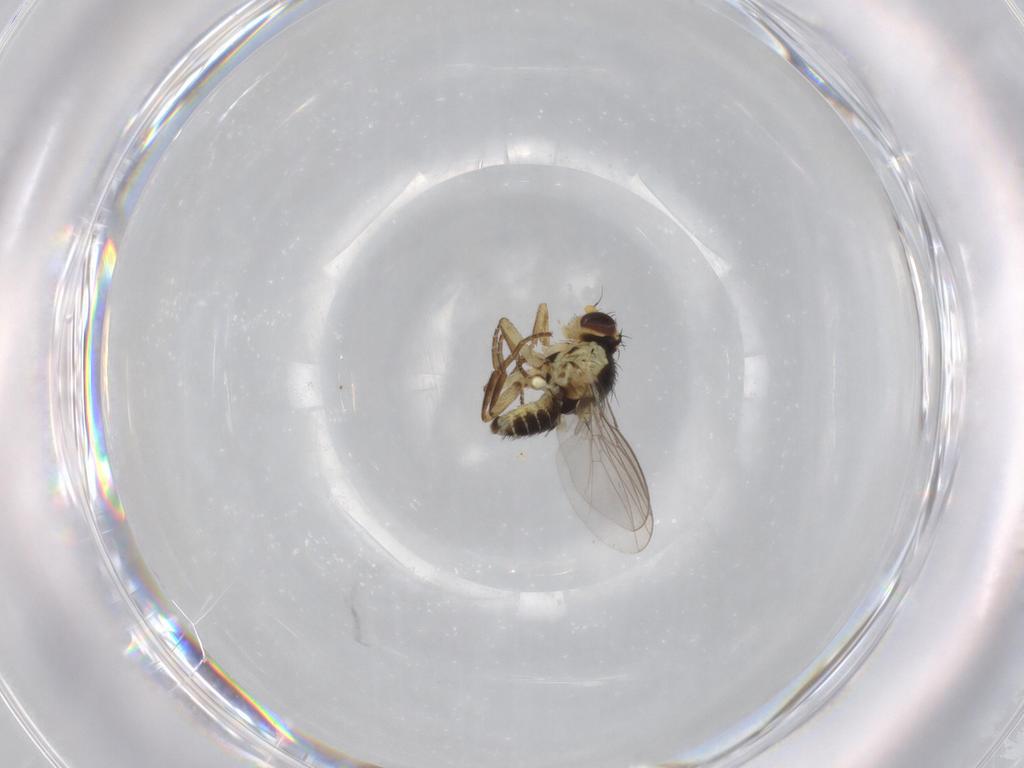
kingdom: Animalia
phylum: Arthropoda
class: Insecta
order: Diptera
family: Agromyzidae
